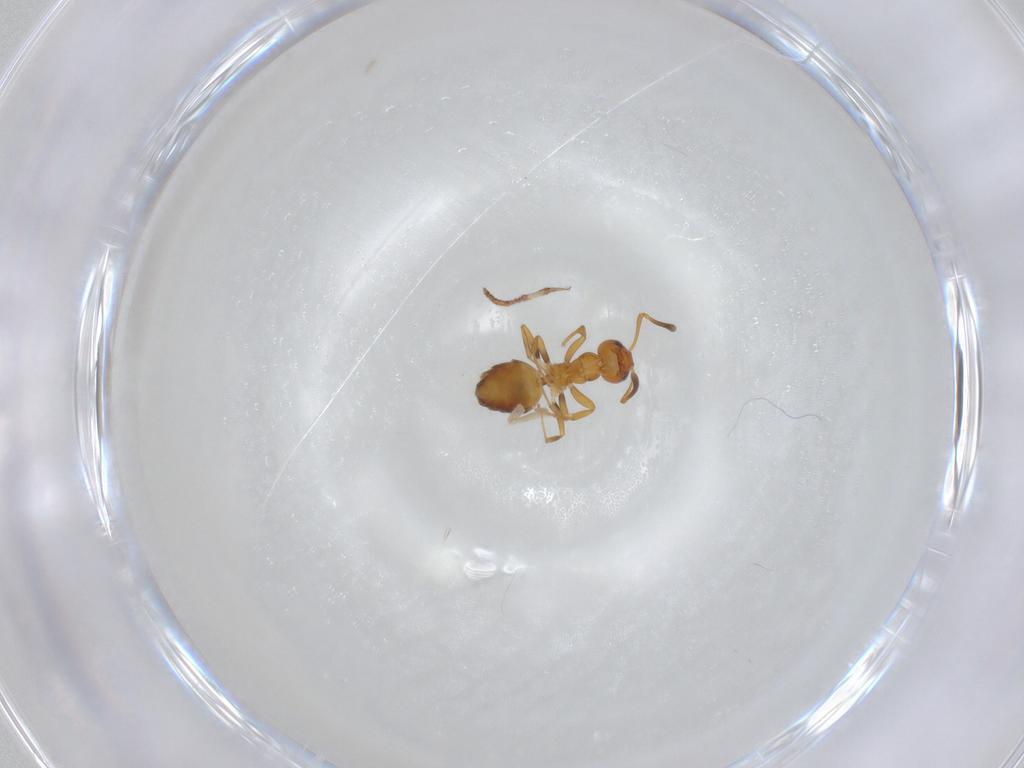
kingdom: Animalia
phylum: Arthropoda
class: Insecta
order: Hymenoptera
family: Formicidae
